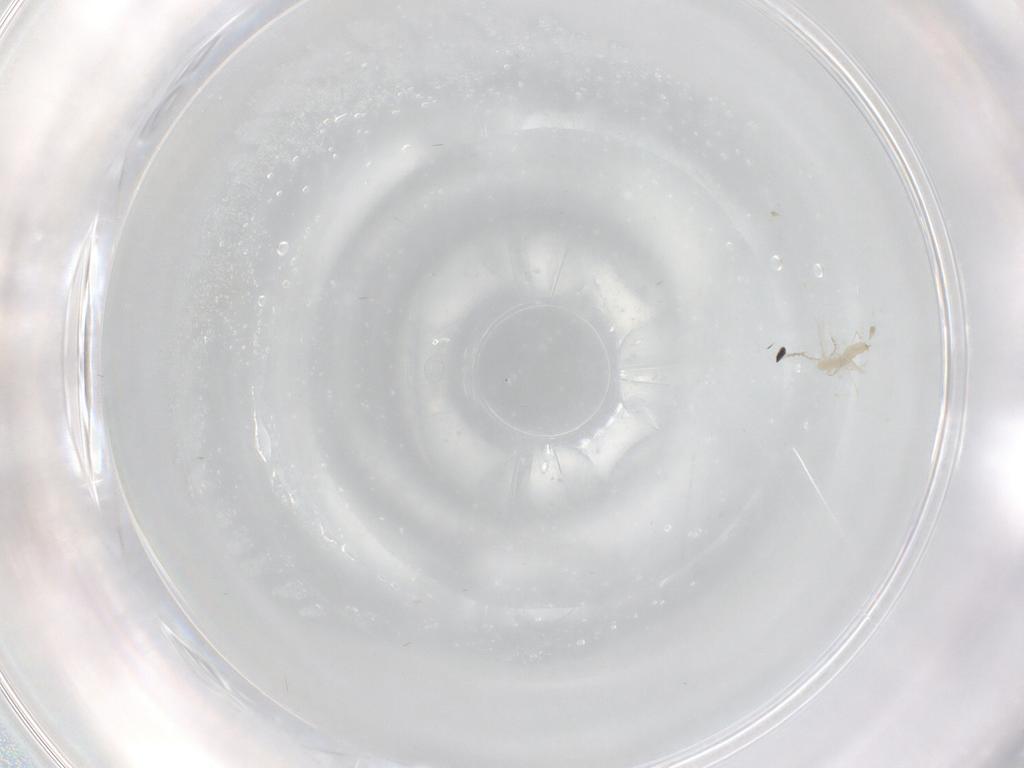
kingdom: Animalia
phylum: Arthropoda
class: Insecta
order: Diptera
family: Cecidomyiidae
